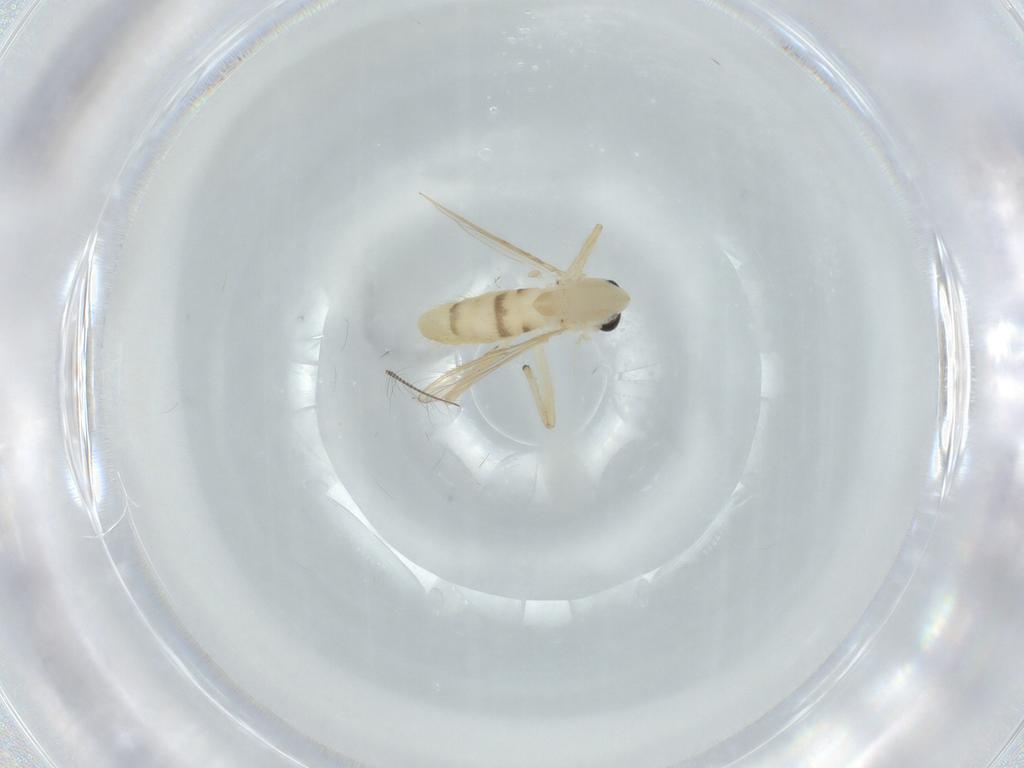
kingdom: Animalia
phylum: Arthropoda
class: Insecta
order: Diptera
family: Chironomidae
